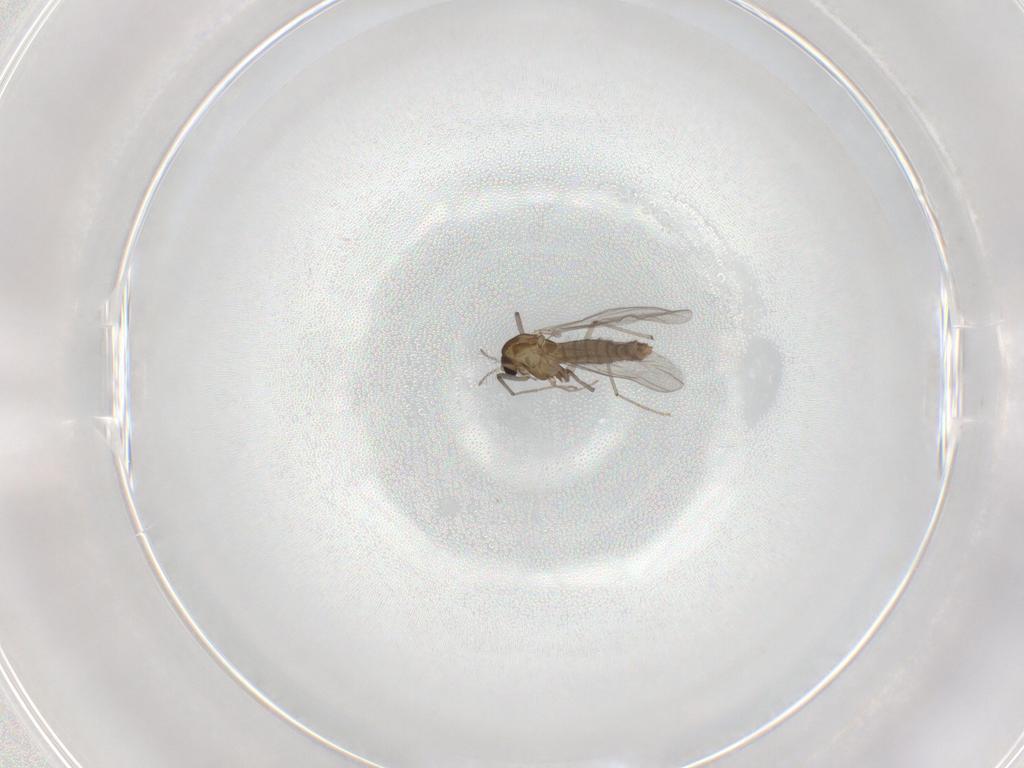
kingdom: Animalia
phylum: Arthropoda
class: Insecta
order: Diptera
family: Chironomidae
